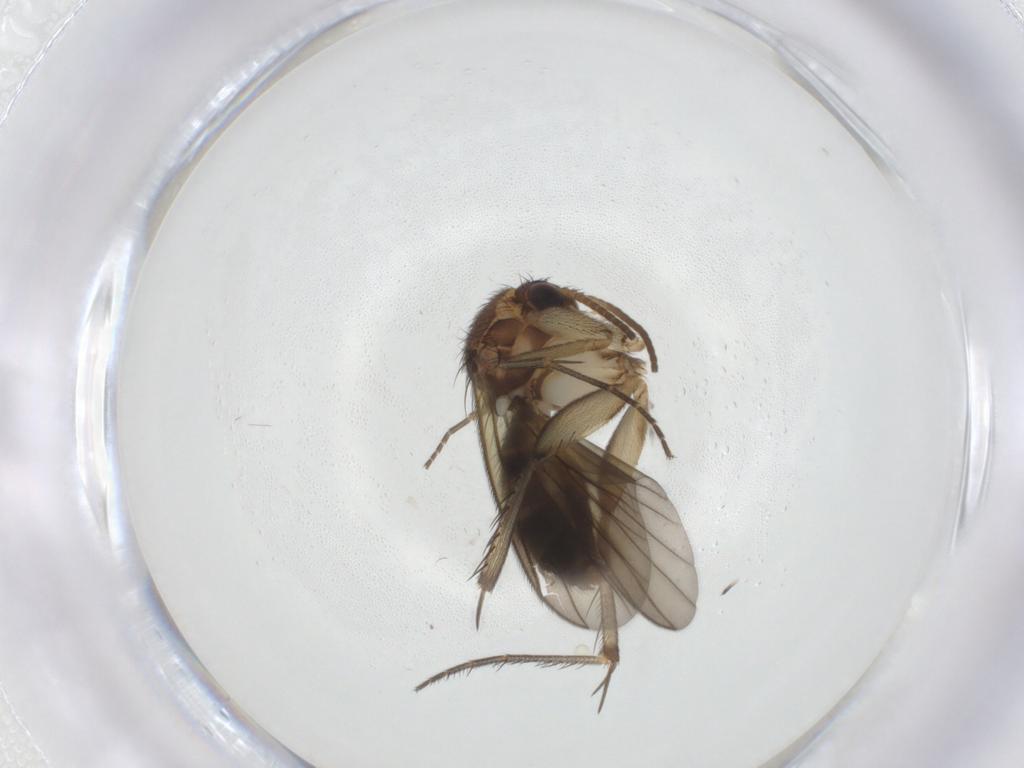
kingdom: Animalia
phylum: Arthropoda
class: Insecta
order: Diptera
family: Phoridae
